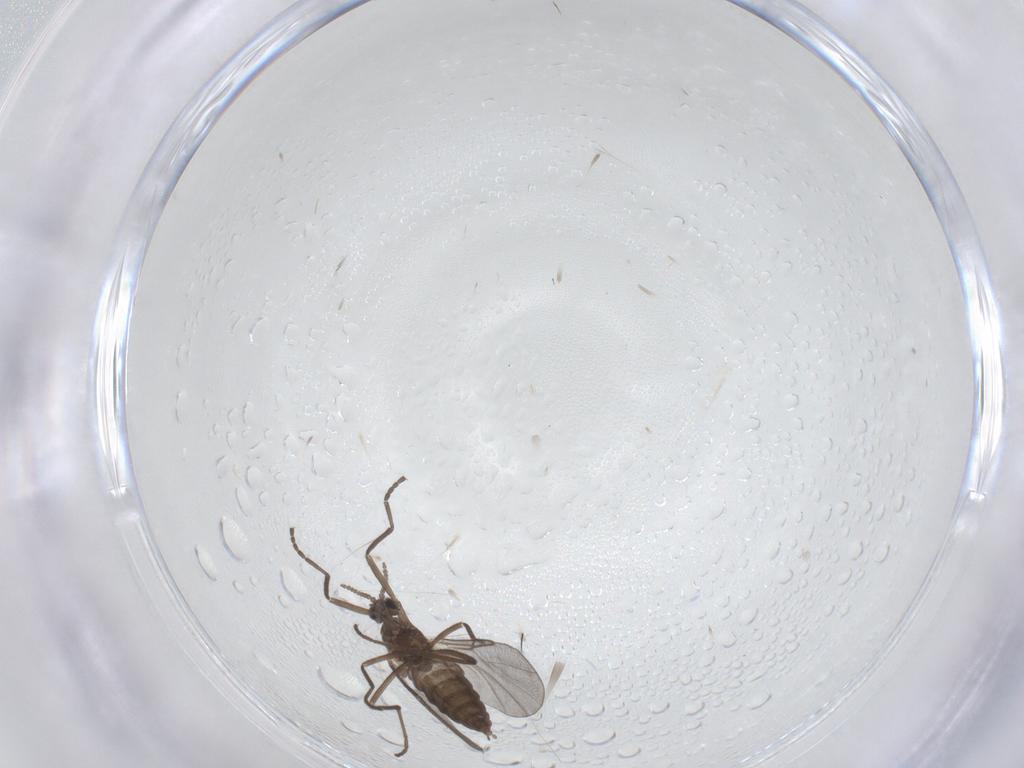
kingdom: Animalia
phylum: Arthropoda
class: Insecta
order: Diptera
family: Cecidomyiidae
